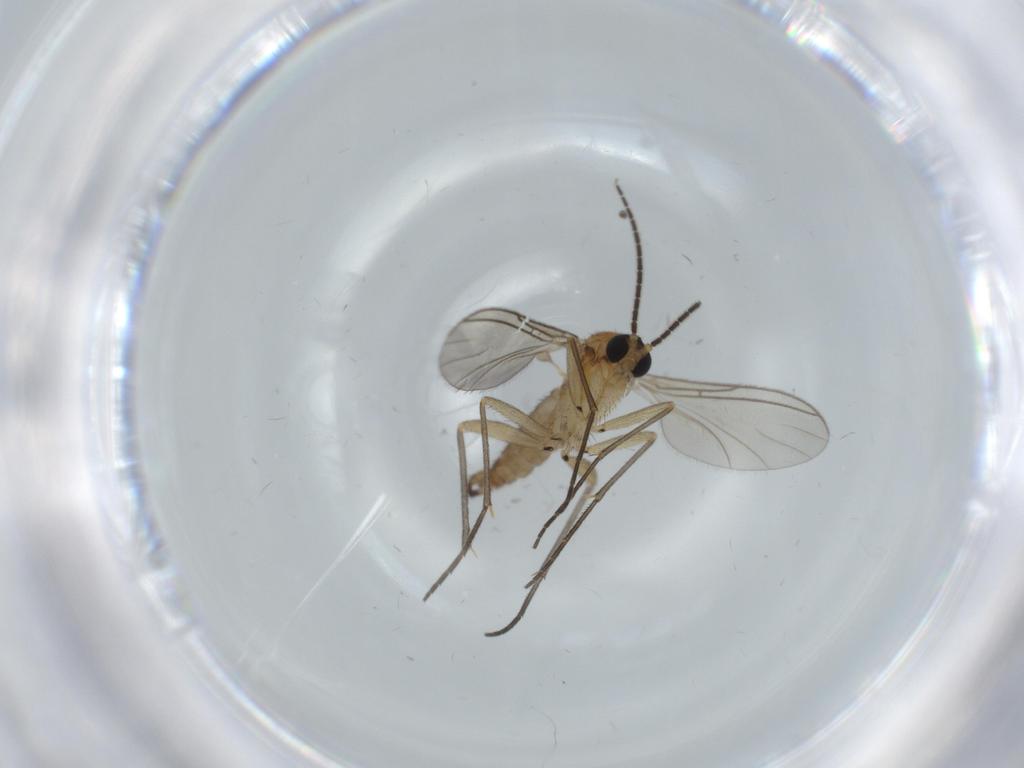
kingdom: Animalia
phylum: Arthropoda
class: Insecta
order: Diptera
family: Sciaridae
